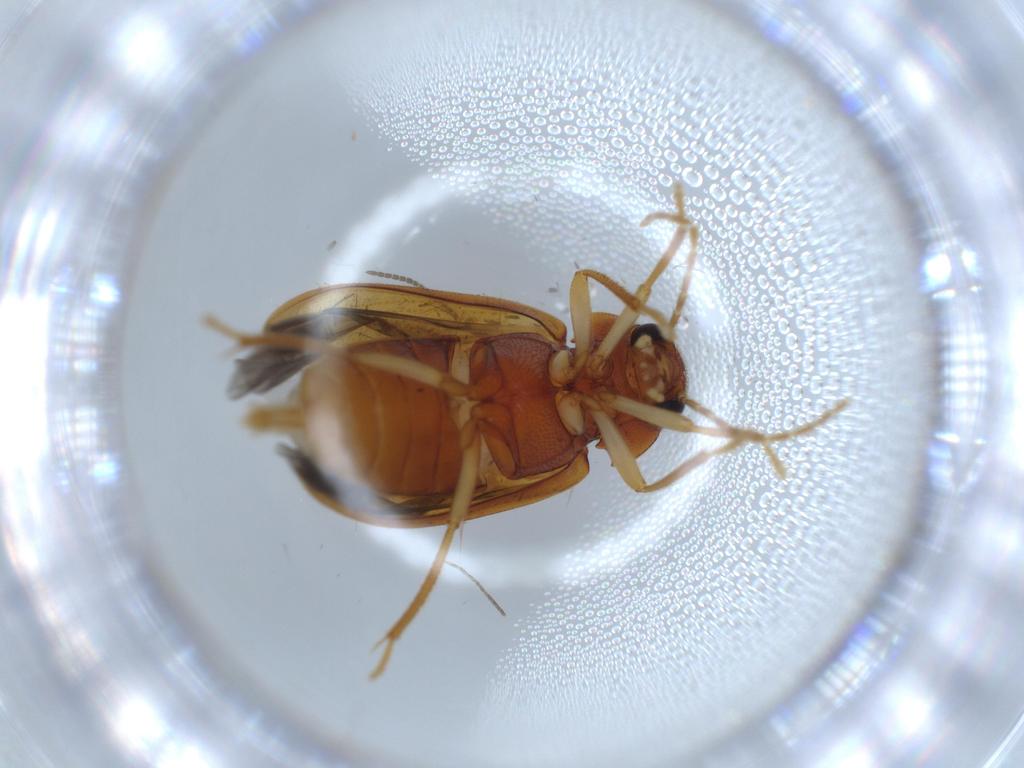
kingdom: Animalia
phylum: Arthropoda
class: Insecta
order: Coleoptera
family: Ptilodactylidae
